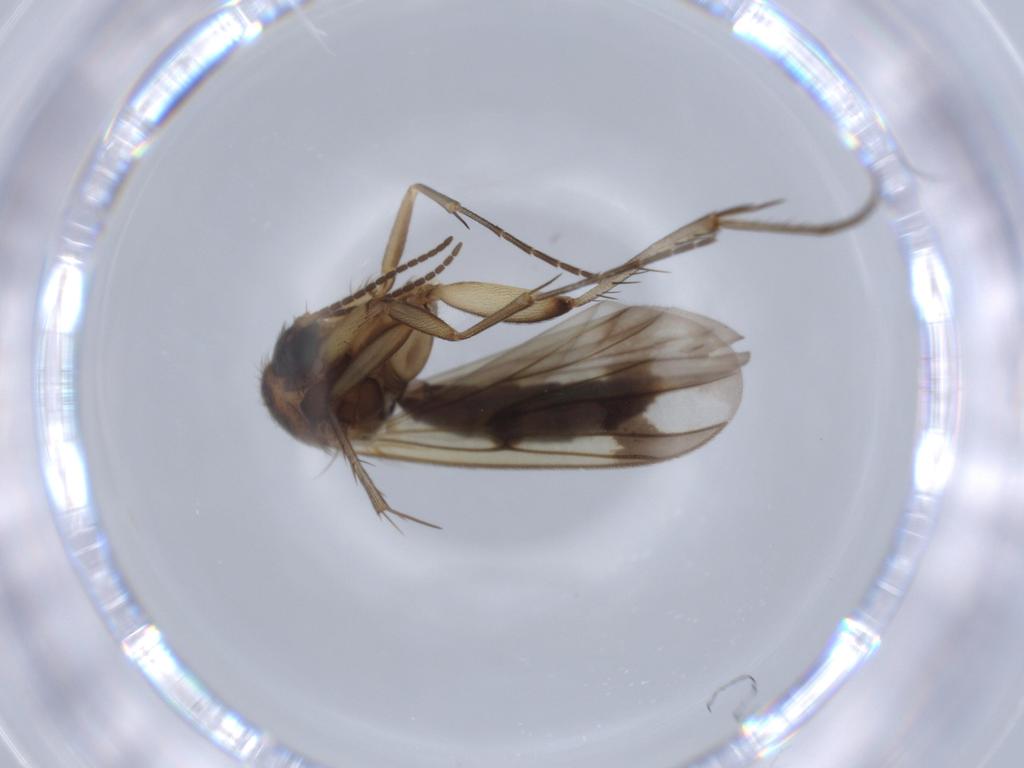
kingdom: Animalia
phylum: Arthropoda
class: Insecta
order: Diptera
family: Mycetophilidae
